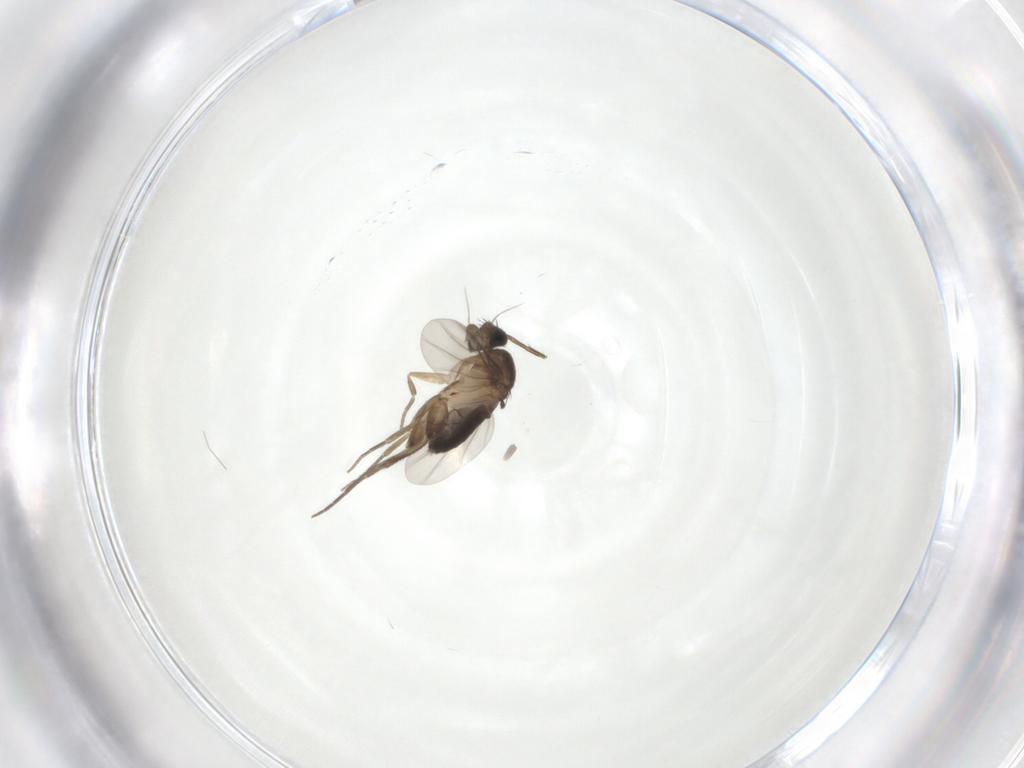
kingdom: Animalia
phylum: Arthropoda
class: Insecta
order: Diptera
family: Phoridae
